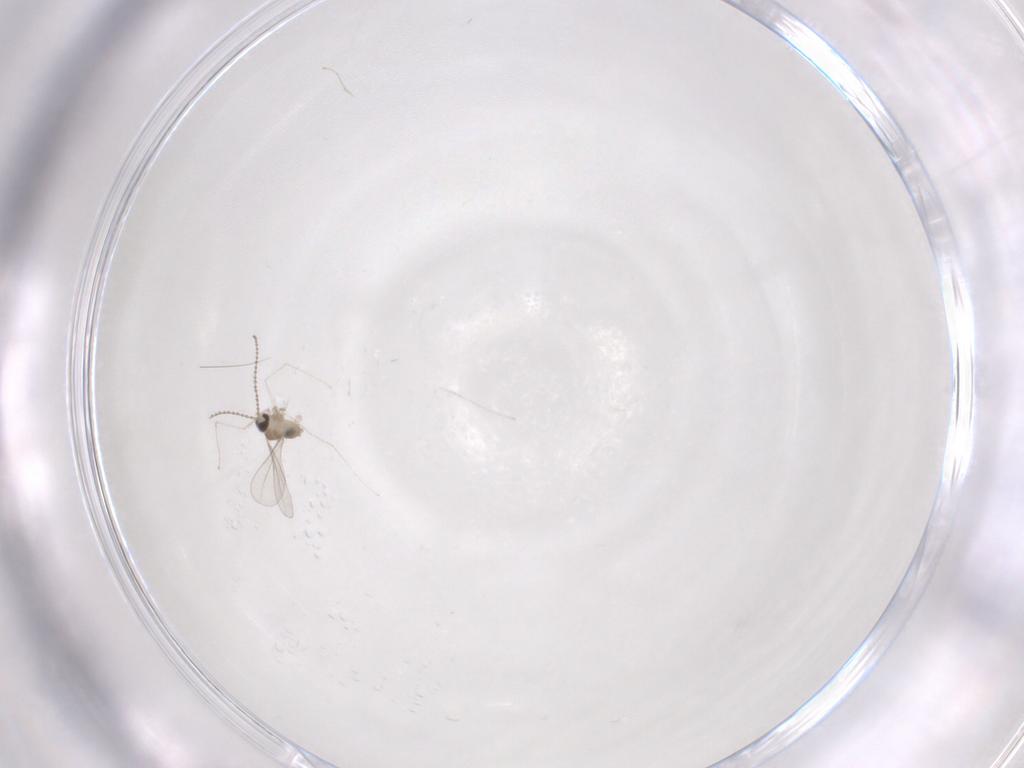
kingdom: Animalia
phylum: Arthropoda
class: Insecta
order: Diptera
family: Cecidomyiidae
